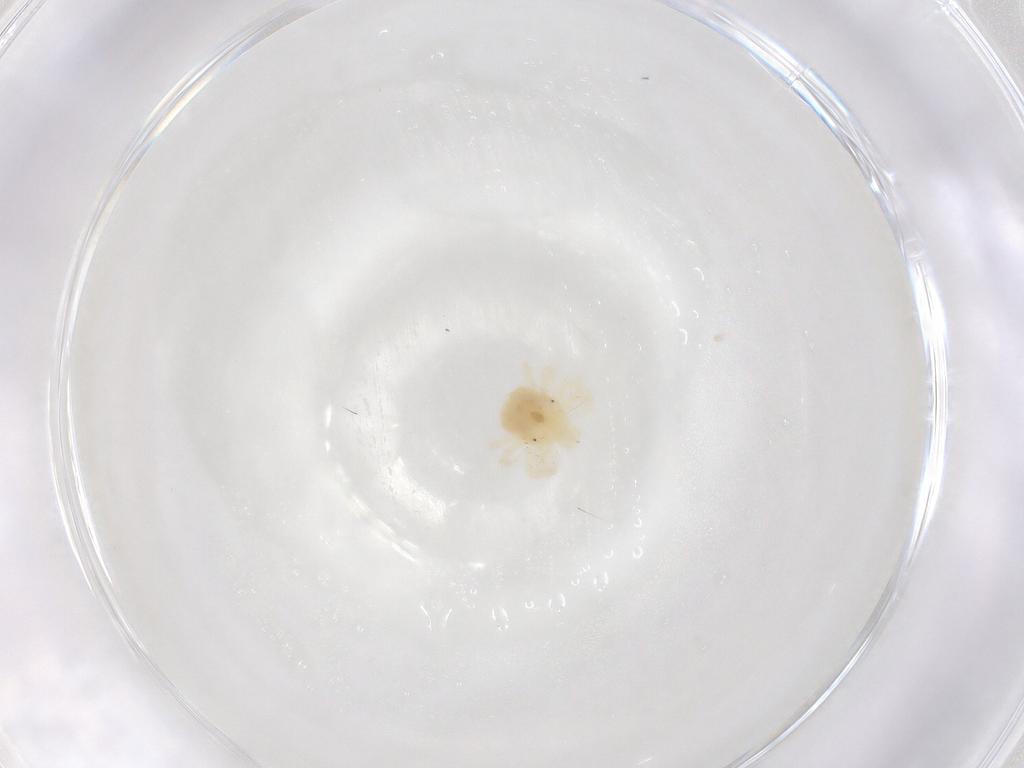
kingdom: Animalia
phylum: Arthropoda
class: Arachnida
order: Trombidiformes
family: Anystidae
